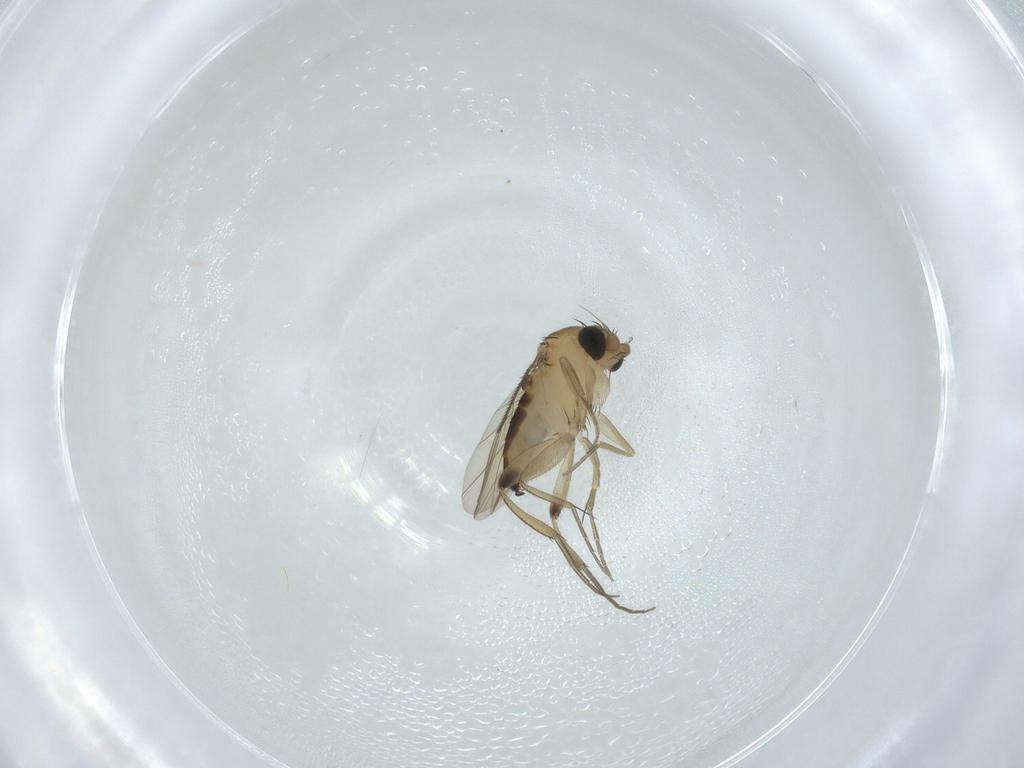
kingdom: Animalia
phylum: Arthropoda
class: Insecta
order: Diptera
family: Phoridae
